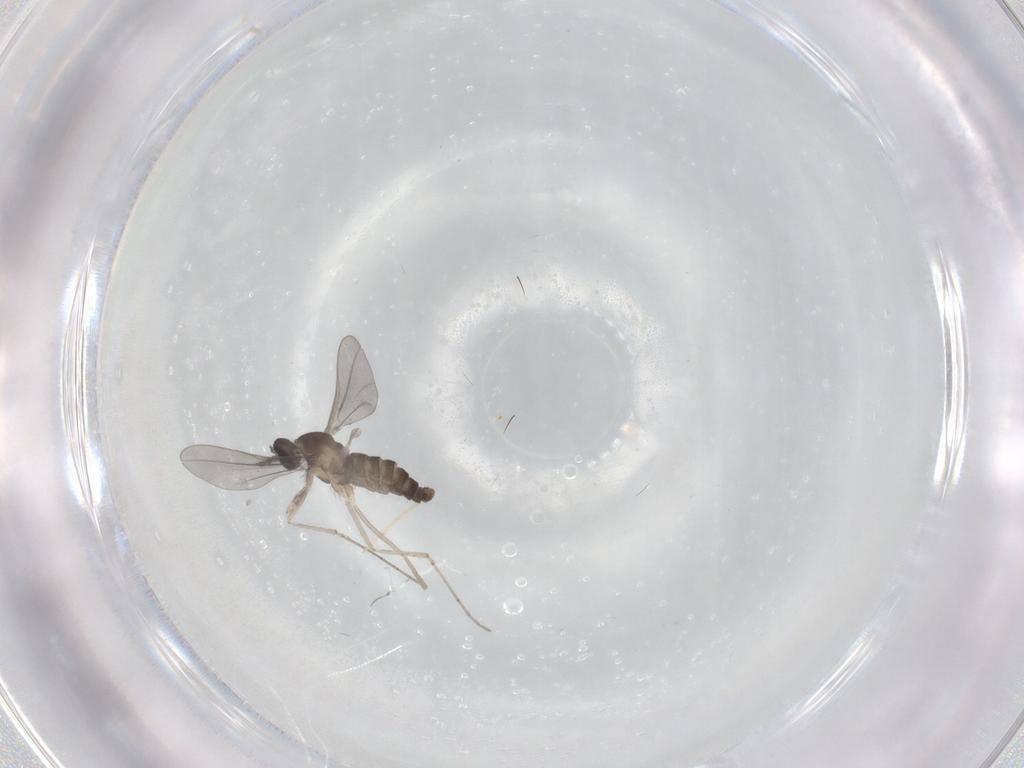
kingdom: Animalia
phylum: Arthropoda
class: Insecta
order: Diptera
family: Cecidomyiidae
